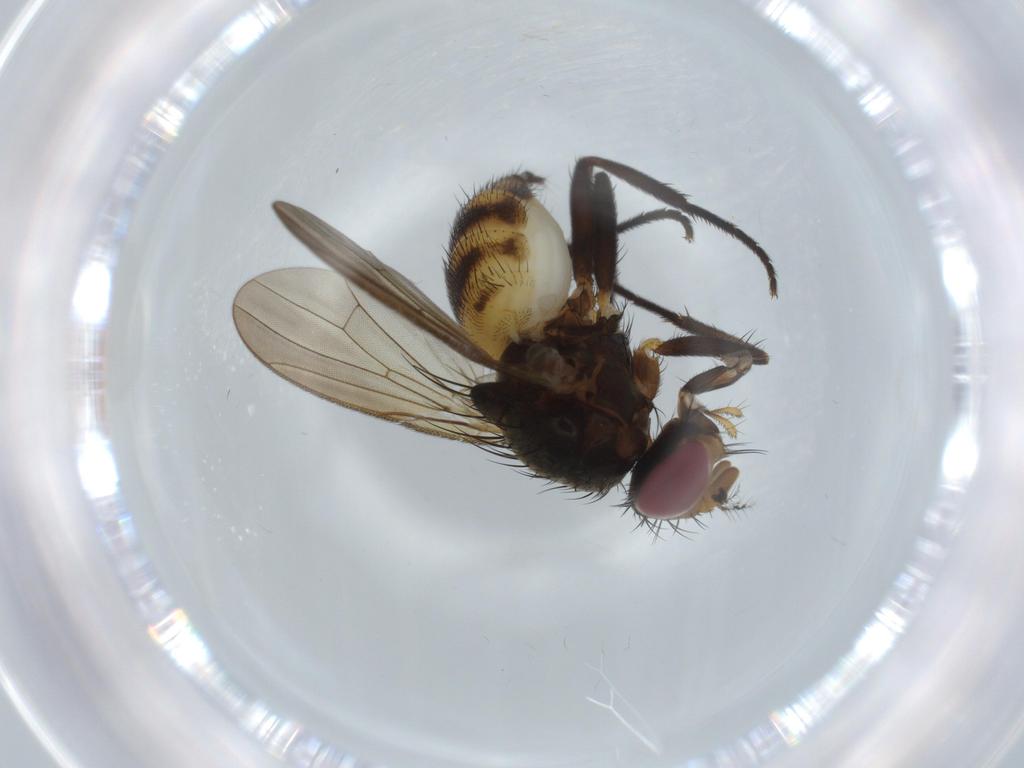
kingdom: Animalia
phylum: Arthropoda
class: Insecta
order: Diptera
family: Anthomyiidae
